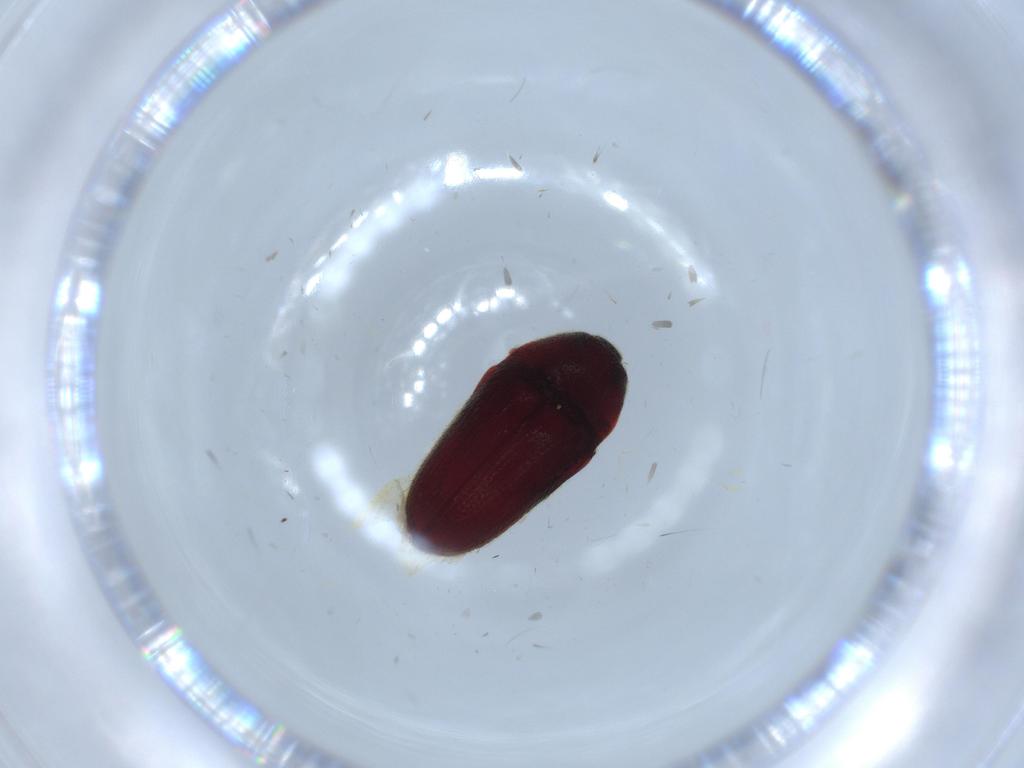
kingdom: Animalia
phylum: Arthropoda
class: Insecta
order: Coleoptera
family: Throscidae
